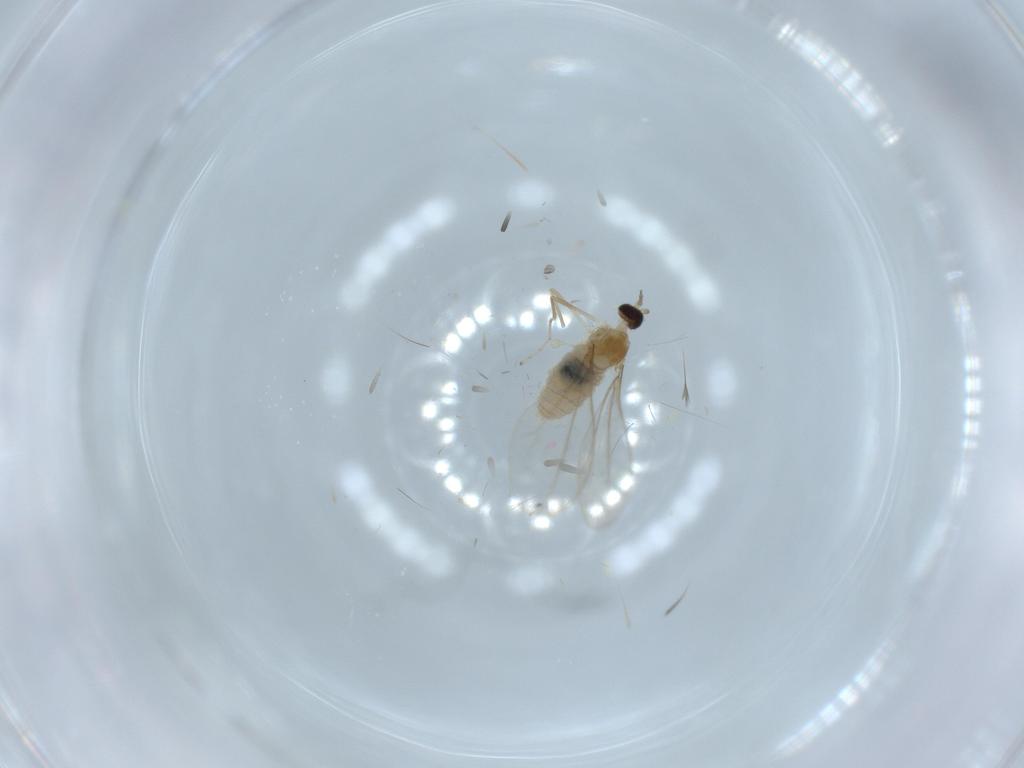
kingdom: Animalia
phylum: Arthropoda
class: Insecta
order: Diptera
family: Cecidomyiidae
